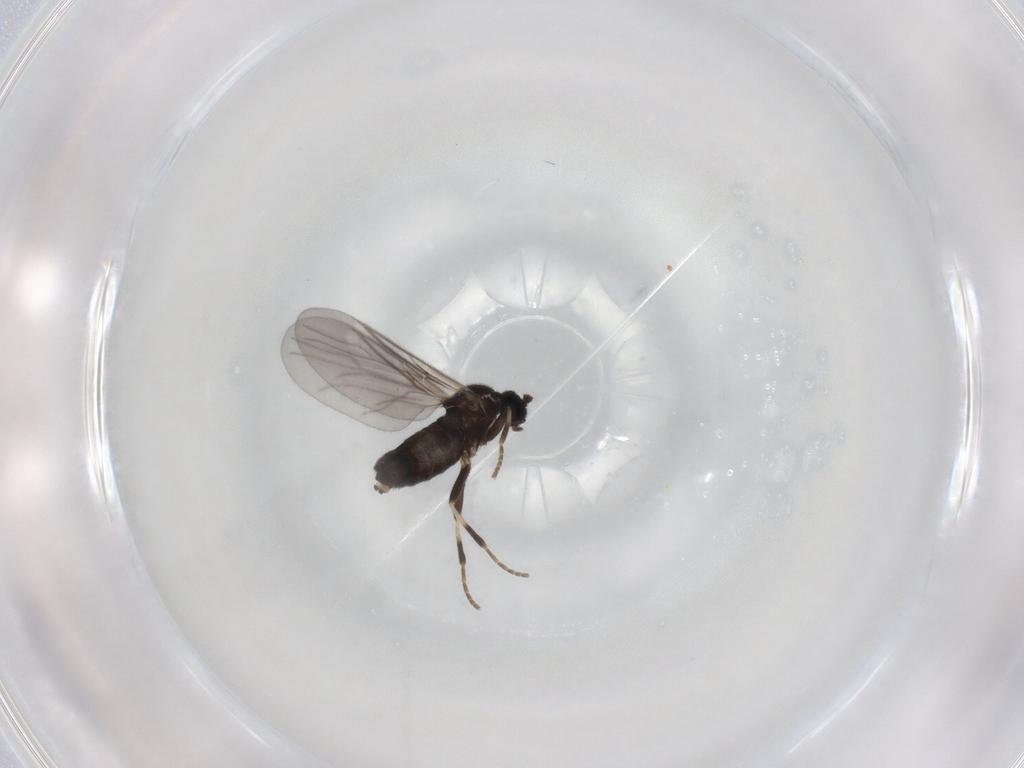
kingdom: Animalia
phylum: Arthropoda
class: Insecta
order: Diptera
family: Scatopsidae
